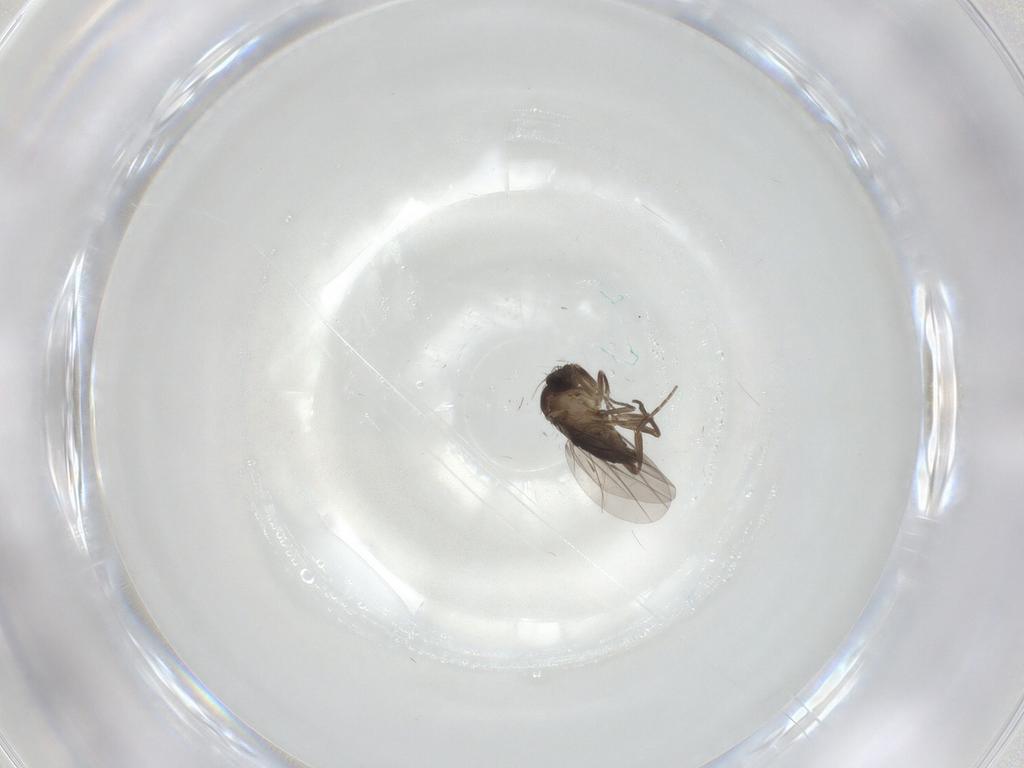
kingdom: Animalia
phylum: Arthropoda
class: Insecta
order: Diptera
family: Phoridae
